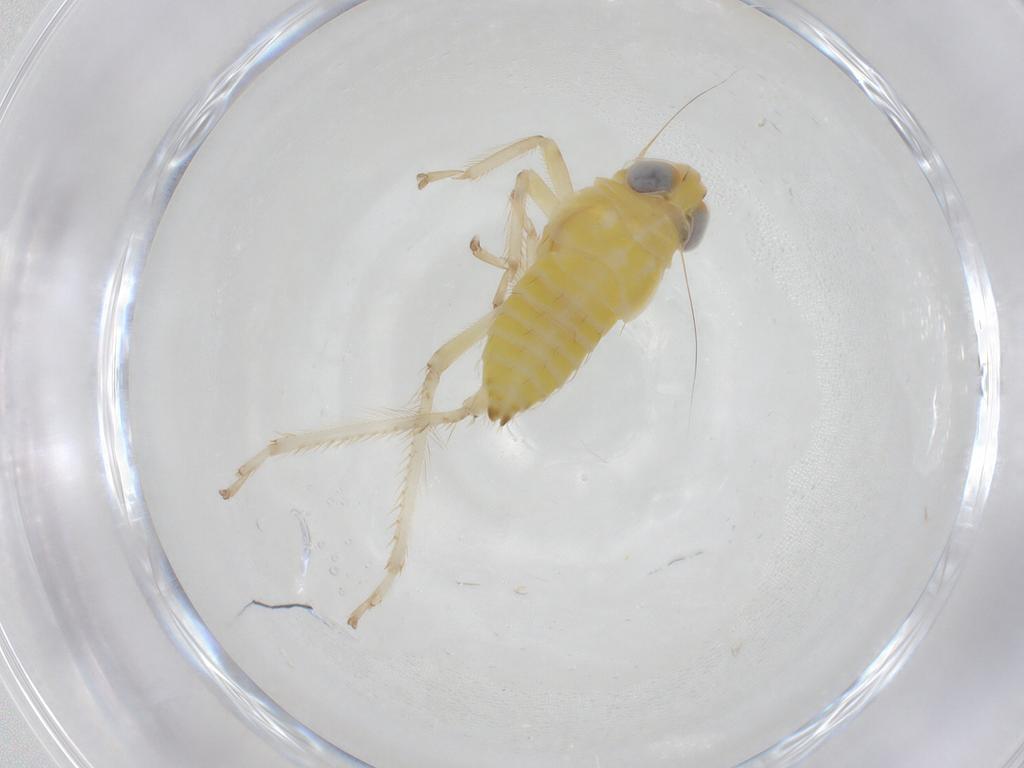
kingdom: Animalia
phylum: Arthropoda
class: Insecta
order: Hemiptera
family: Cicadellidae
